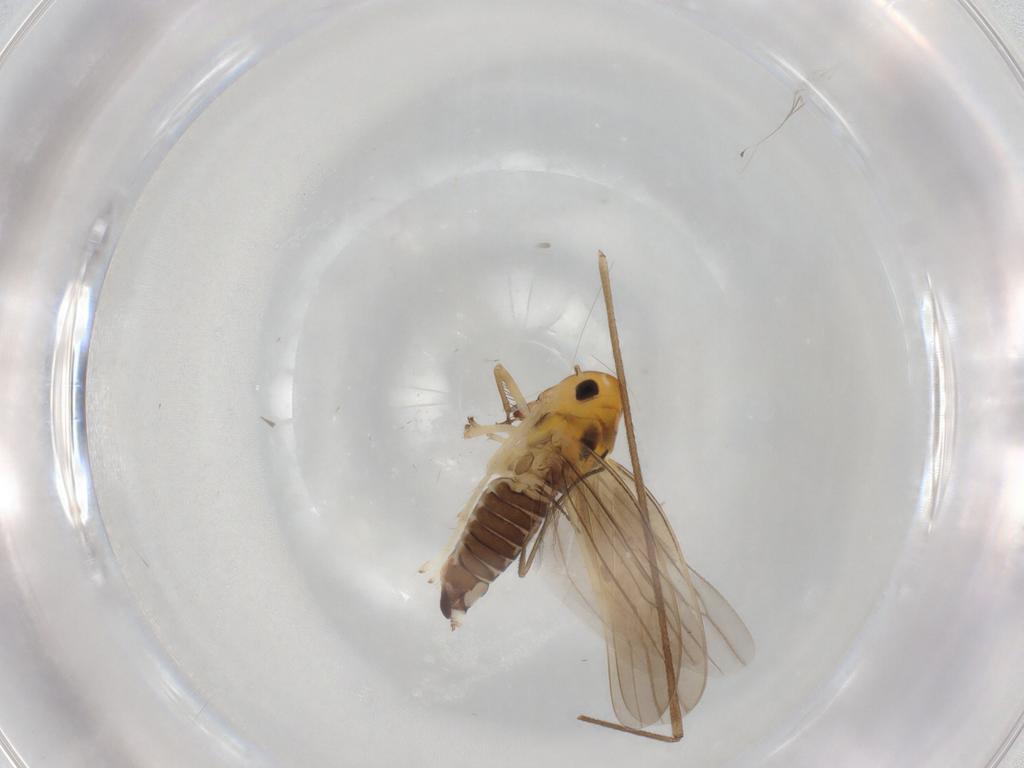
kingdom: Animalia
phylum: Arthropoda
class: Insecta
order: Hemiptera
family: Cicadellidae
